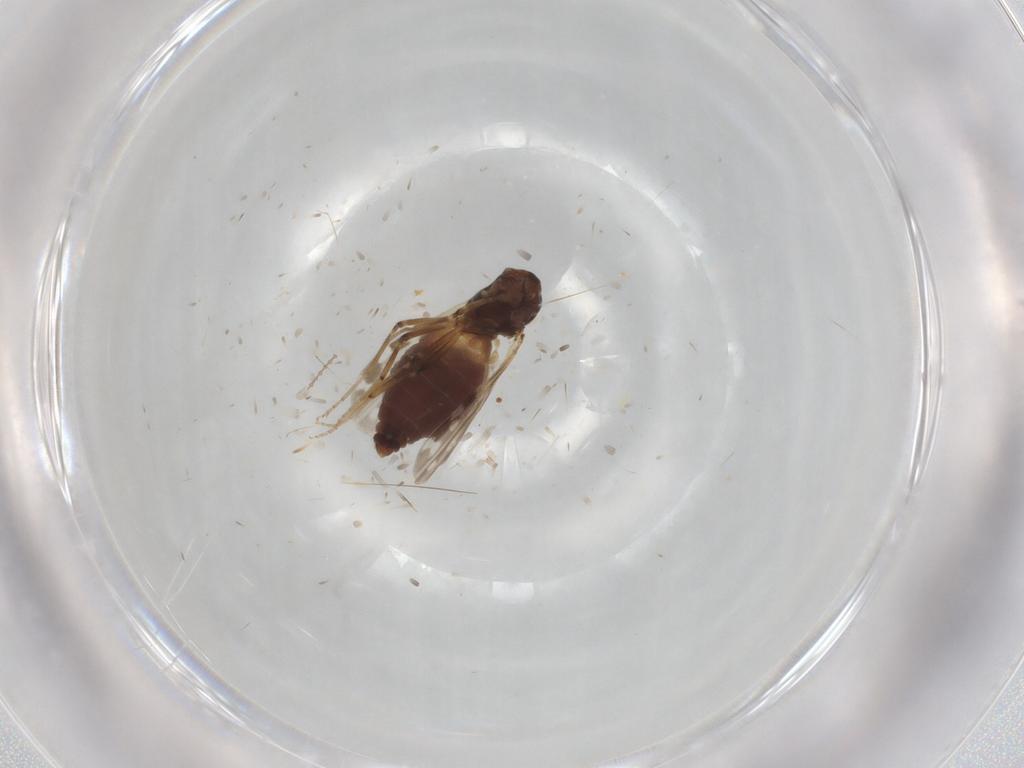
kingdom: Animalia
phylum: Arthropoda
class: Insecta
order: Diptera
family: Ceratopogonidae
